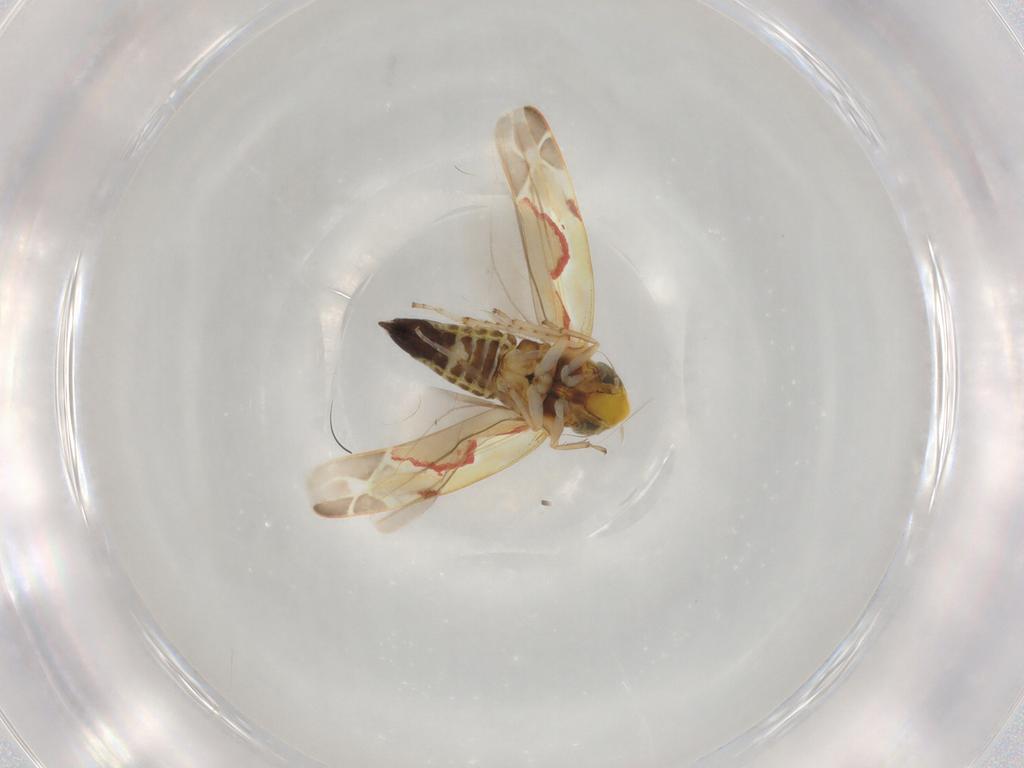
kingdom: Animalia
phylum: Arthropoda
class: Insecta
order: Hemiptera
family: Cicadellidae
